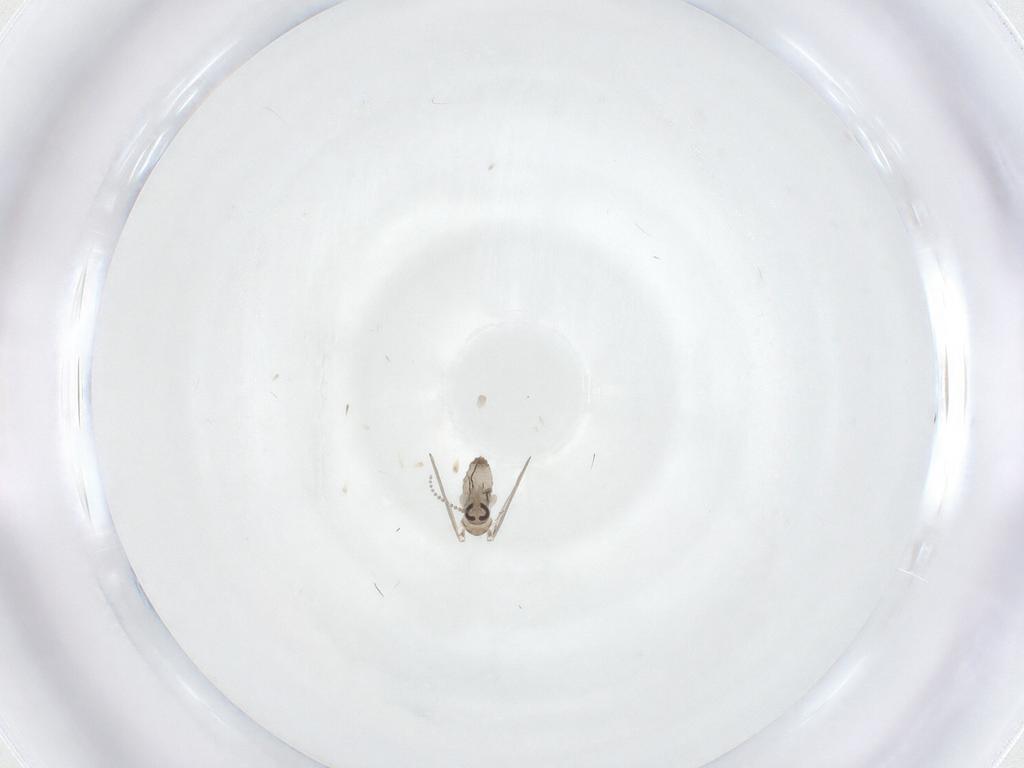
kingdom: Animalia
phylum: Arthropoda
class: Insecta
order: Diptera
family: Psychodidae
